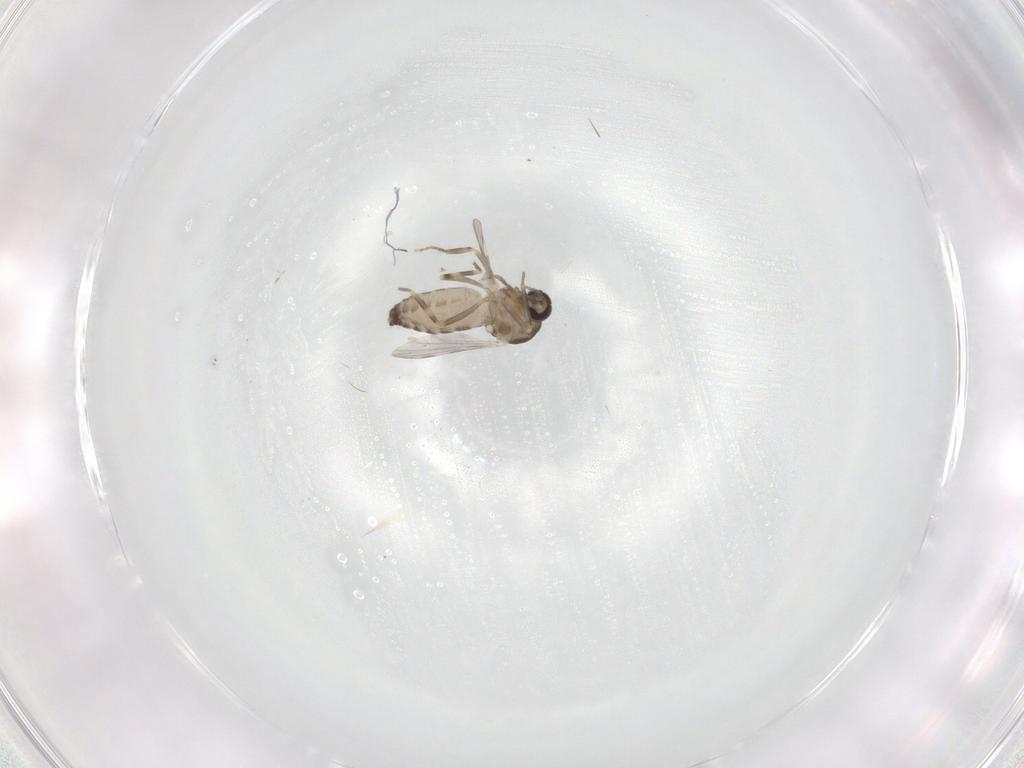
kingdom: Animalia
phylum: Arthropoda
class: Insecta
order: Diptera
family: Ceratopogonidae
